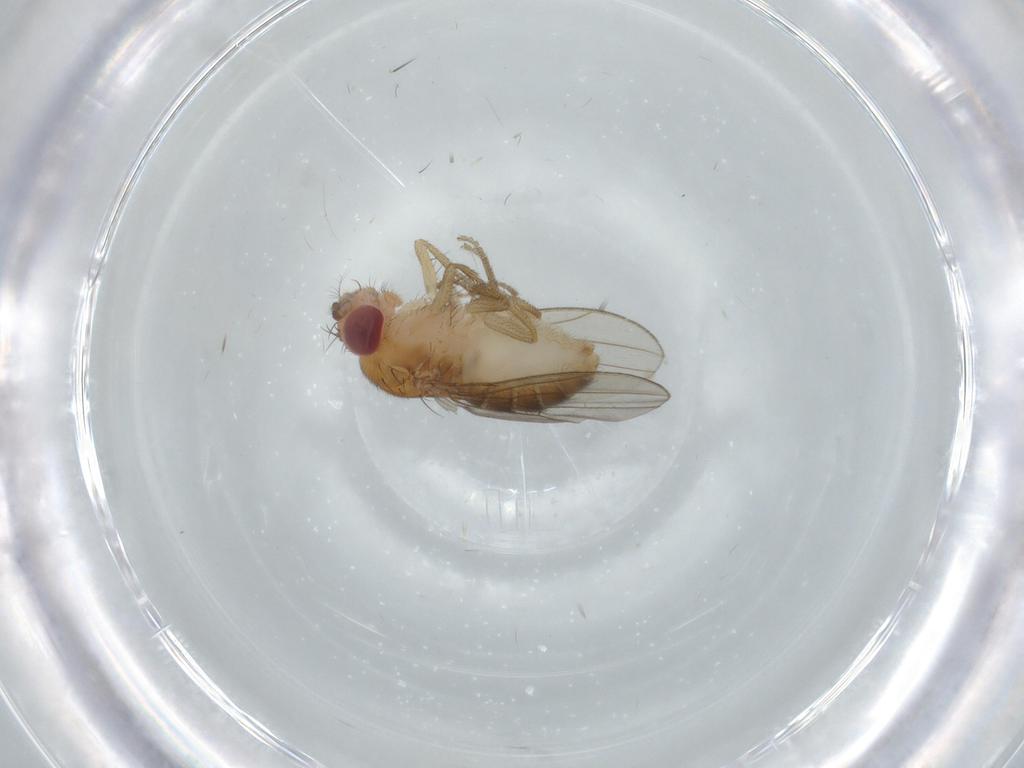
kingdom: Animalia
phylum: Arthropoda
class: Insecta
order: Diptera
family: Drosophilidae
